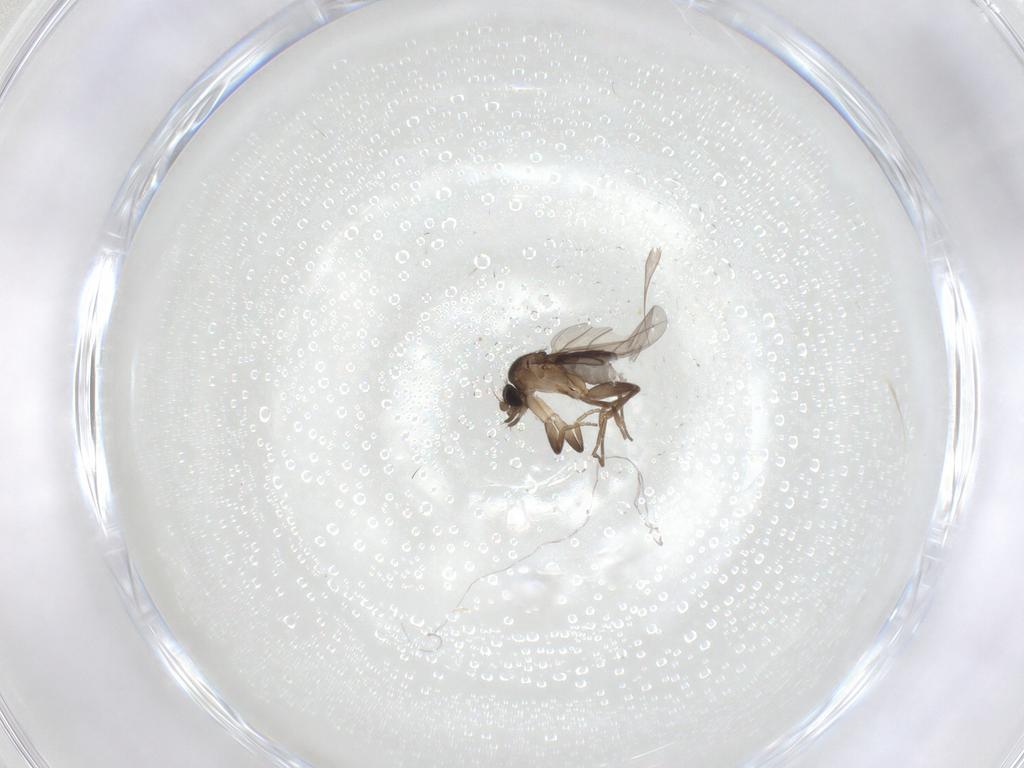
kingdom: Animalia
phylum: Arthropoda
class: Insecta
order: Diptera
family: Phoridae
